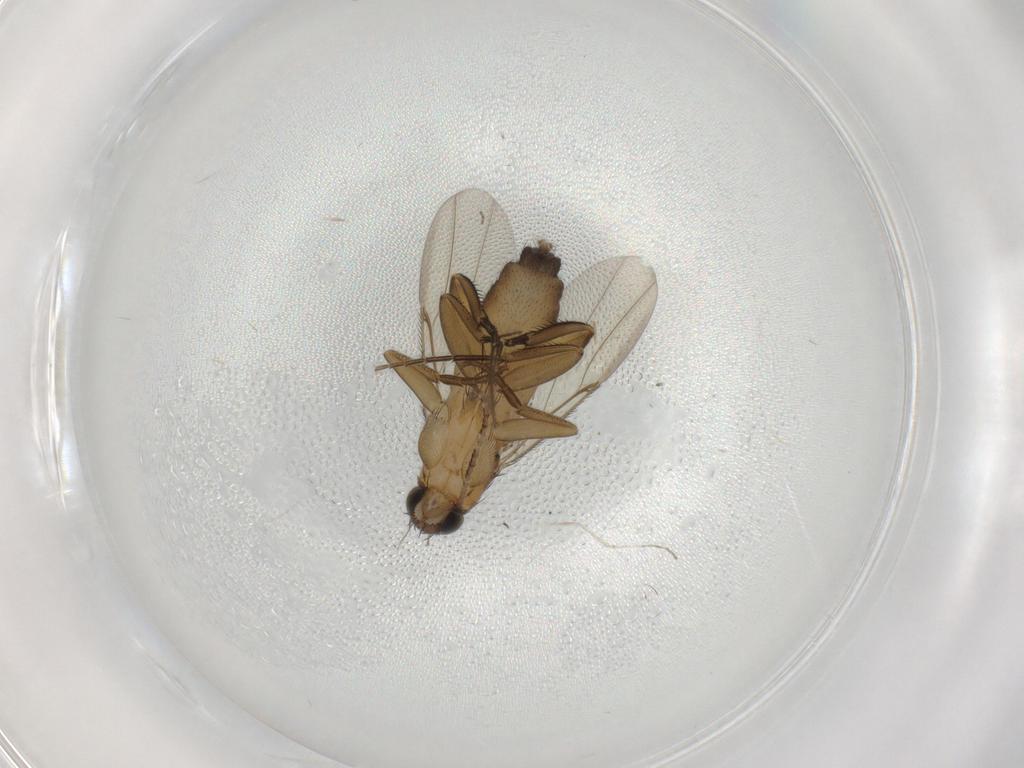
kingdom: Animalia
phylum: Arthropoda
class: Insecta
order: Diptera
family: Phoridae
